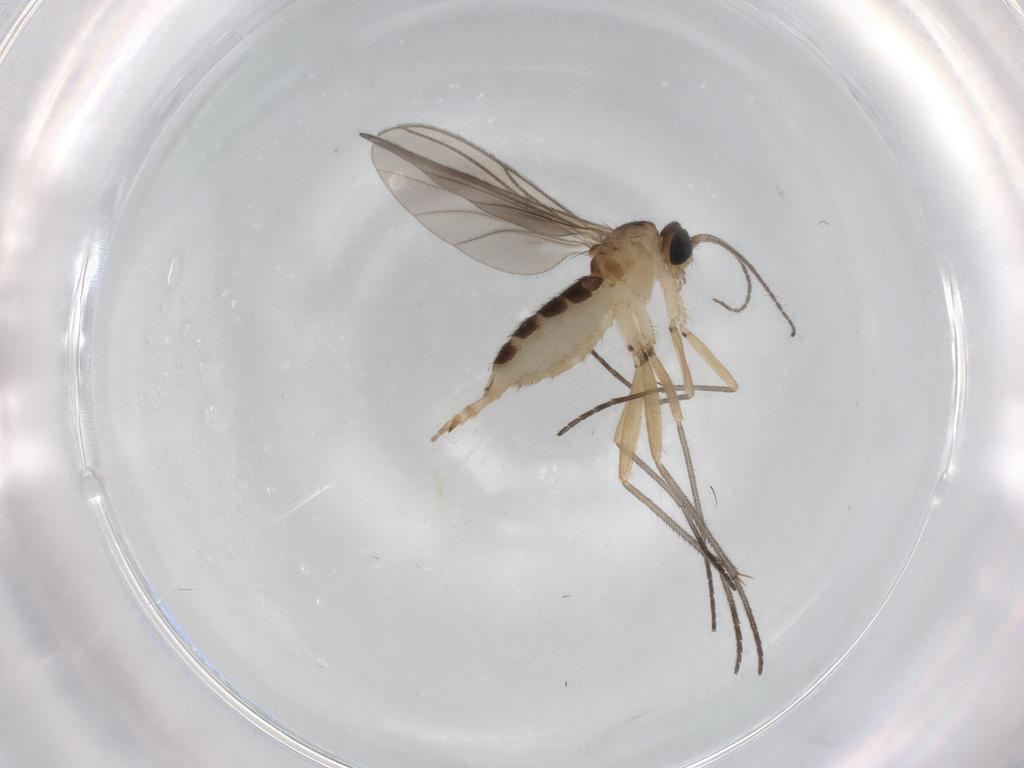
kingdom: Animalia
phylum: Arthropoda
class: Insecta
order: Diptera
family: Sciaridae
